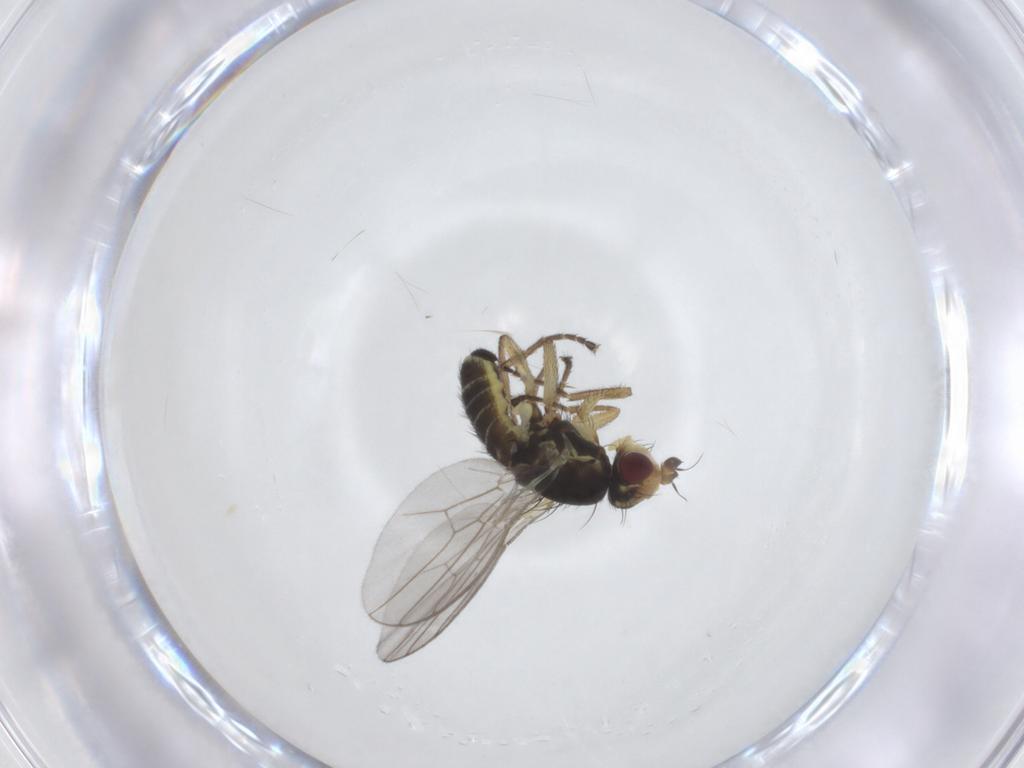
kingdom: Animalia
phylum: Arthropoda
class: Insecta
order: Diptera
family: Agromyzidae
